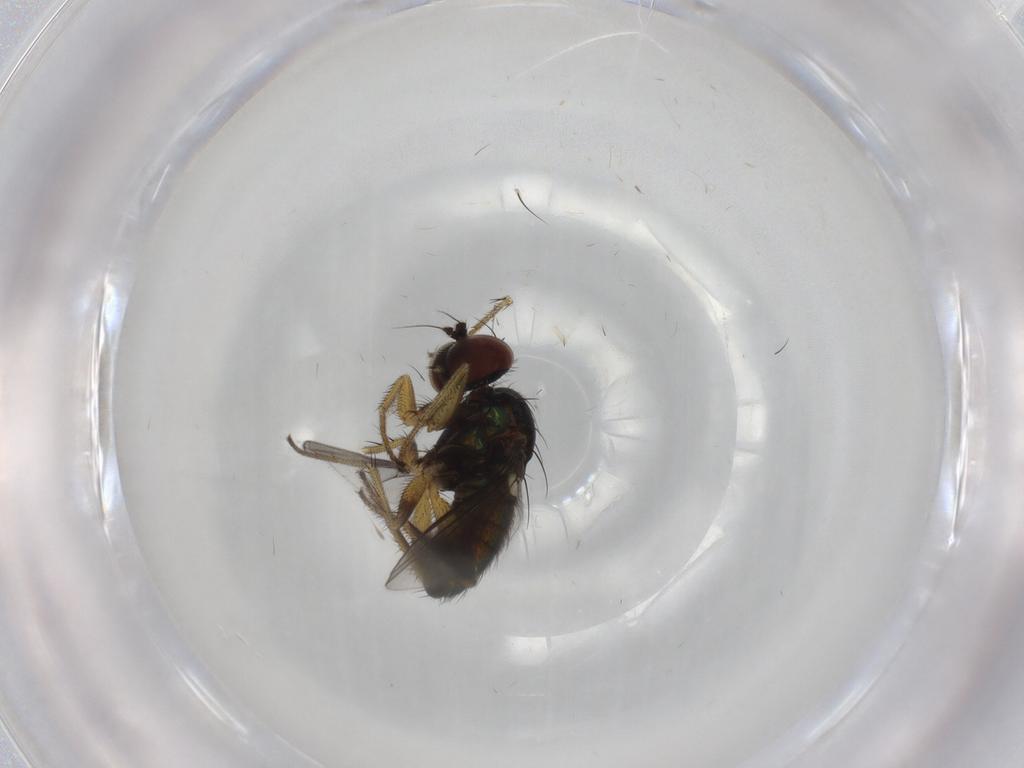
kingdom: Animalia
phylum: Arthropoda
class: Insecta
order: Diptera
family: Dolichopodidae
